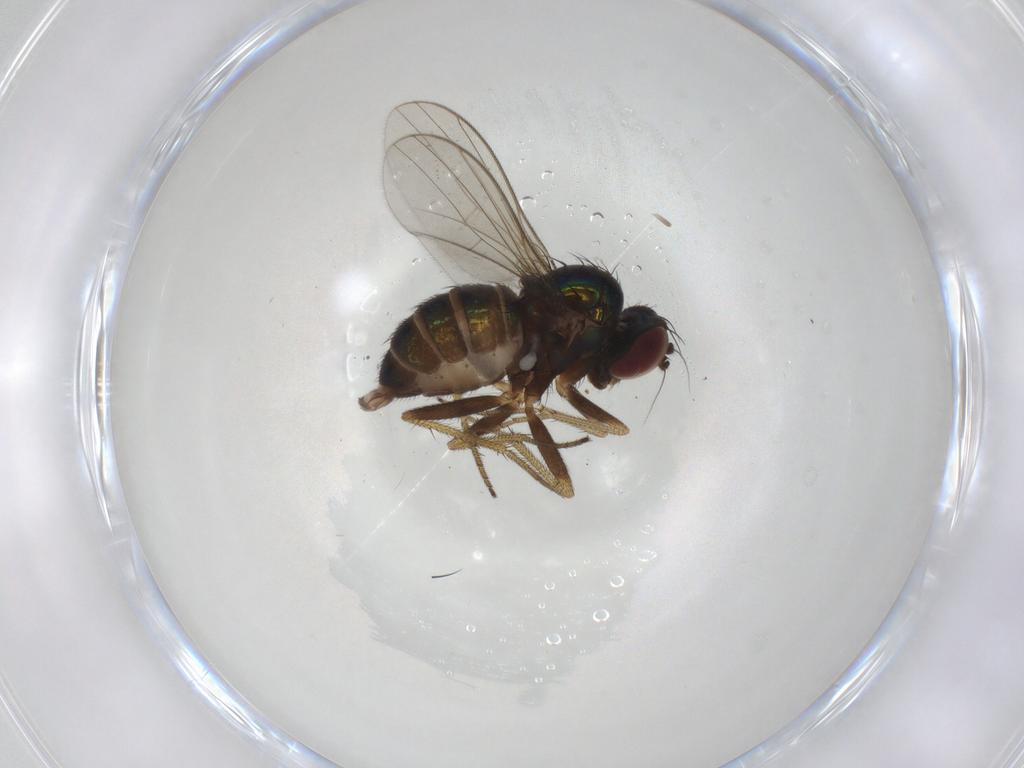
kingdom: Animalia
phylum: Arthropoda
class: Insecta
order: Diptera
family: Dolichopodidae
